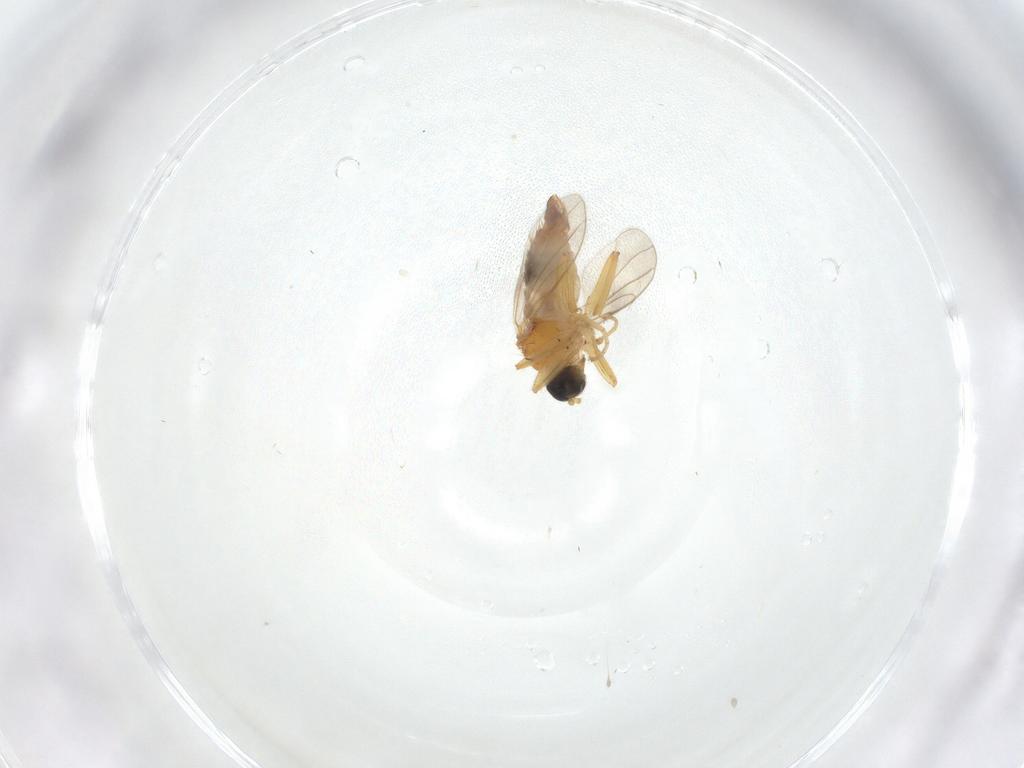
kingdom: Animalia
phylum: Arthropoda
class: Insecta
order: Diptera
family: Hybotidae
